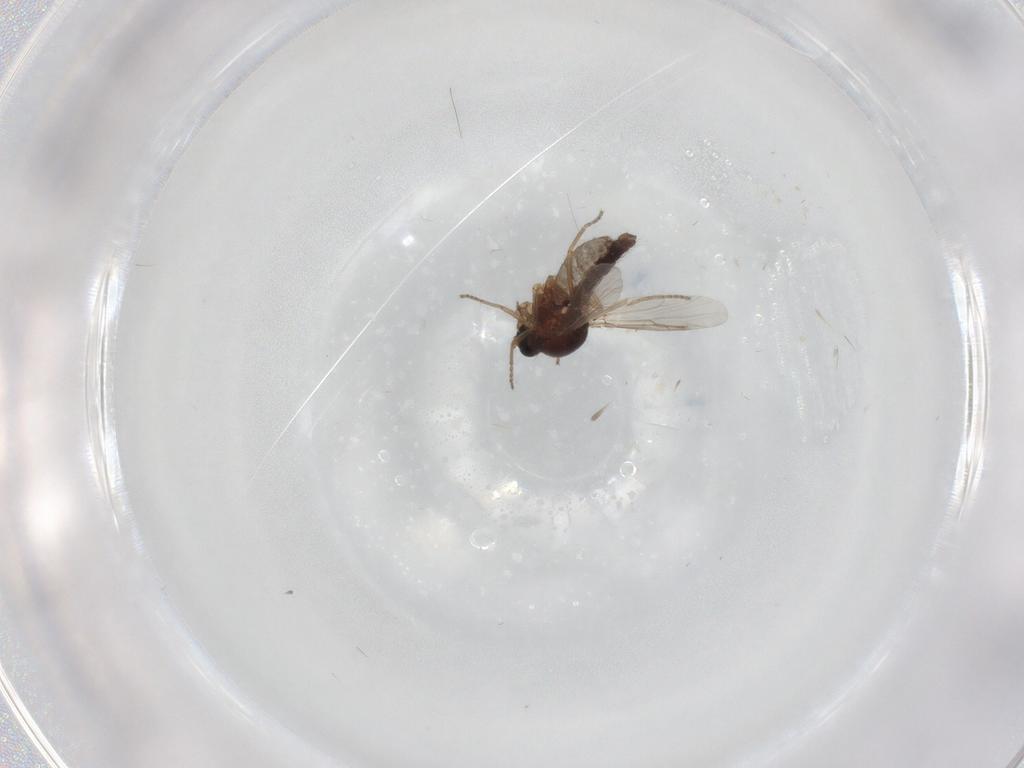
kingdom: Animalia
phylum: Arthropoda
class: Insecta
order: Diptera
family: Ceratopogonidae
